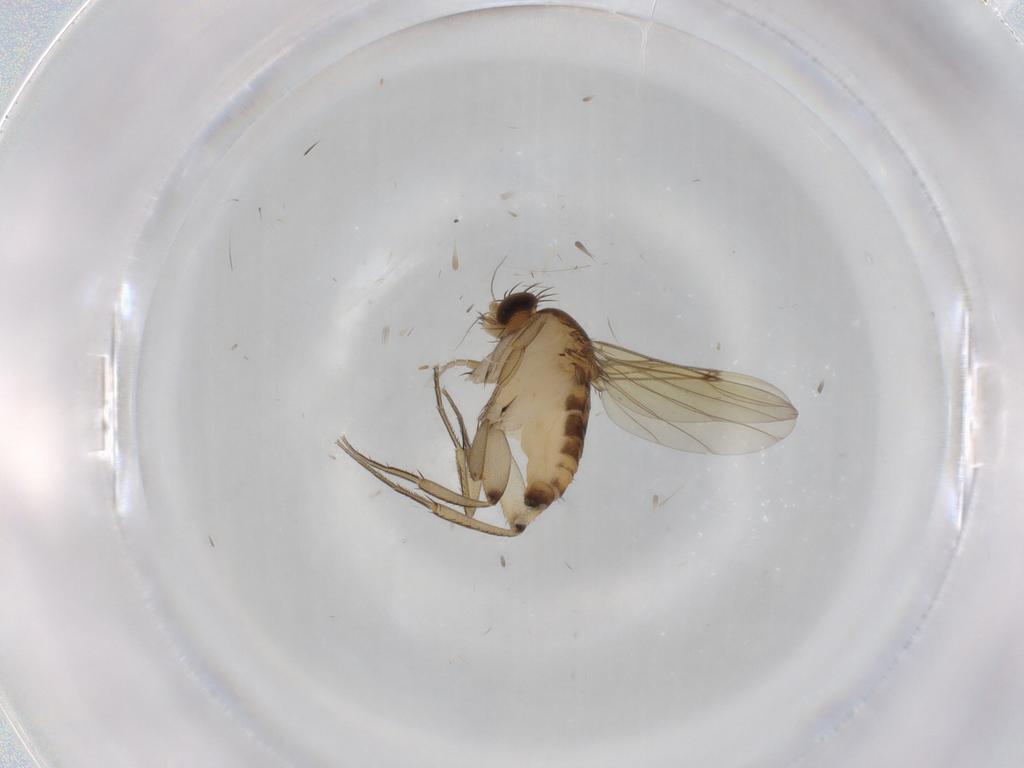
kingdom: Animalia
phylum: Arthropoda
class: Insecta
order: Diptera
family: Phoridae
